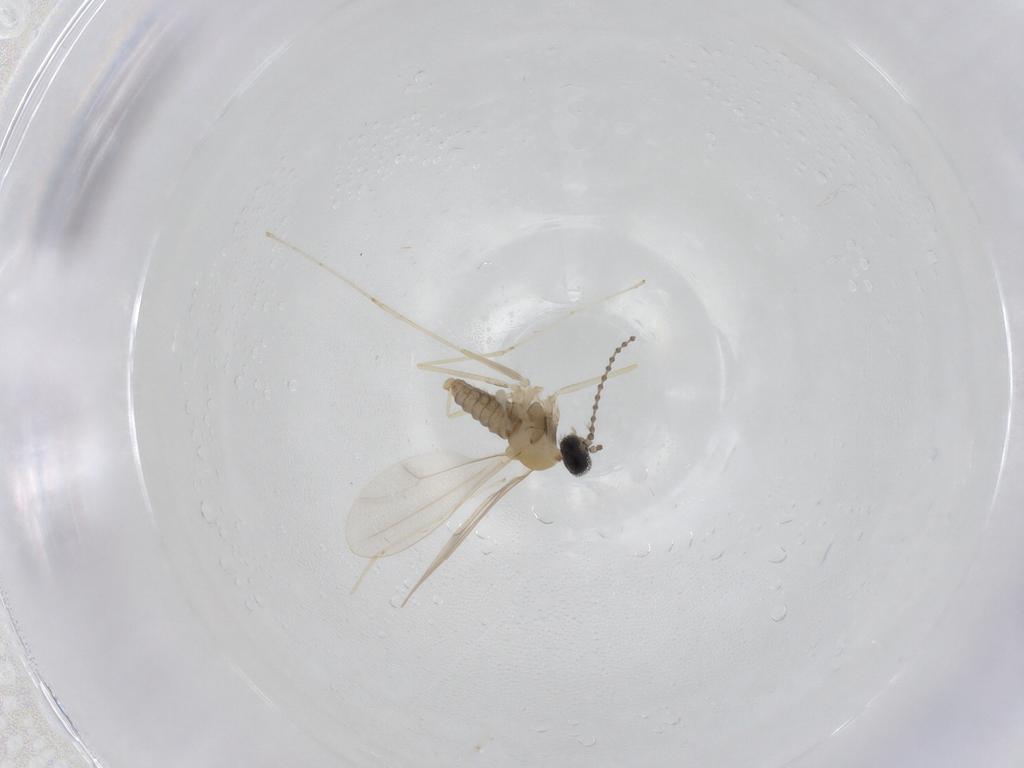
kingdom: Animalia
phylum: Arthropoda
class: Insecta
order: Diptera
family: Cecidomyiidae
